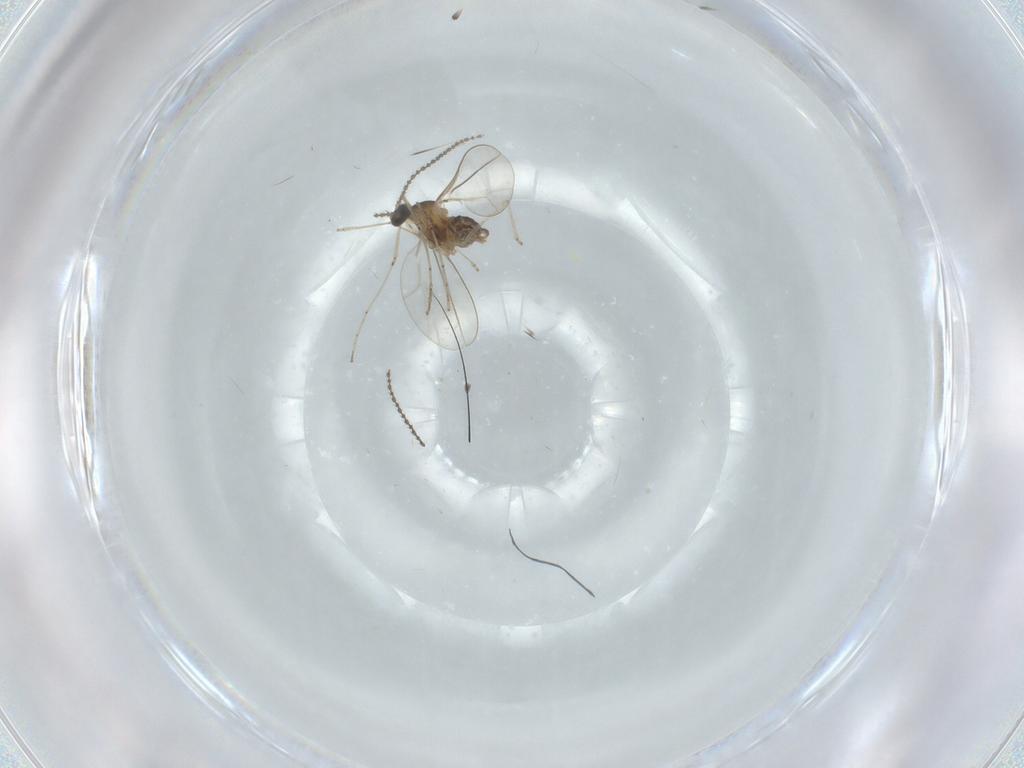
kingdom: Animalia
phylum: Arthropoda
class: Insecta
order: Diptera
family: Cecidomyiidae
